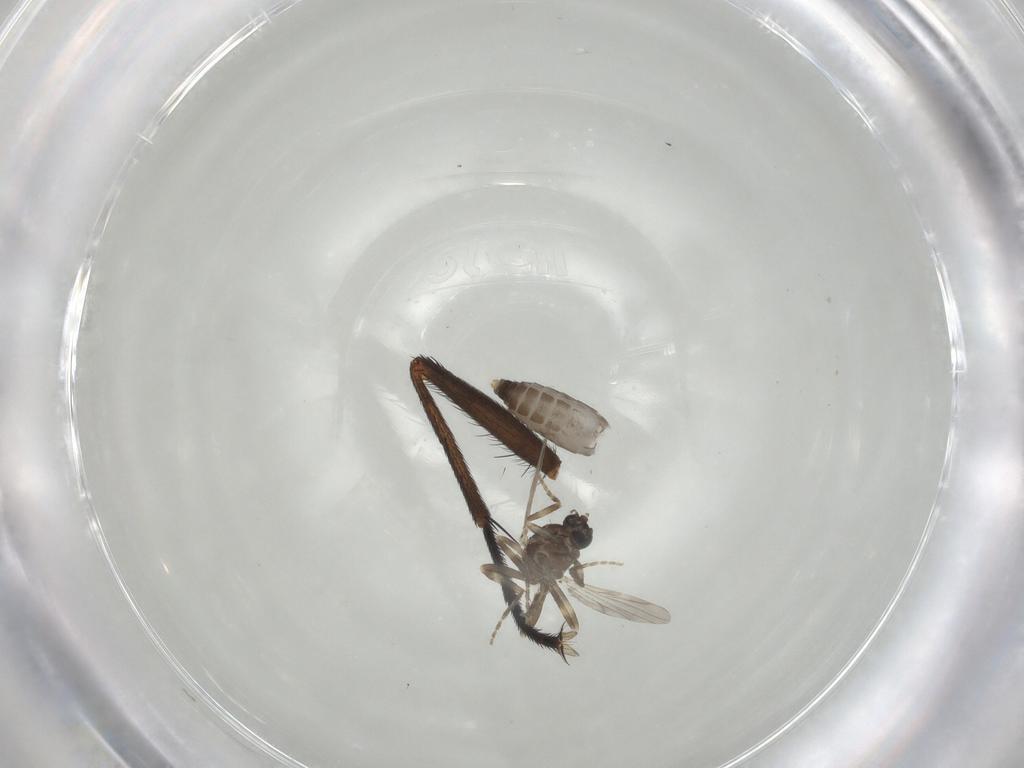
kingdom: Animalia
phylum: Arthropoda
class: Insecta
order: Diptera
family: Ceratopogonidae
